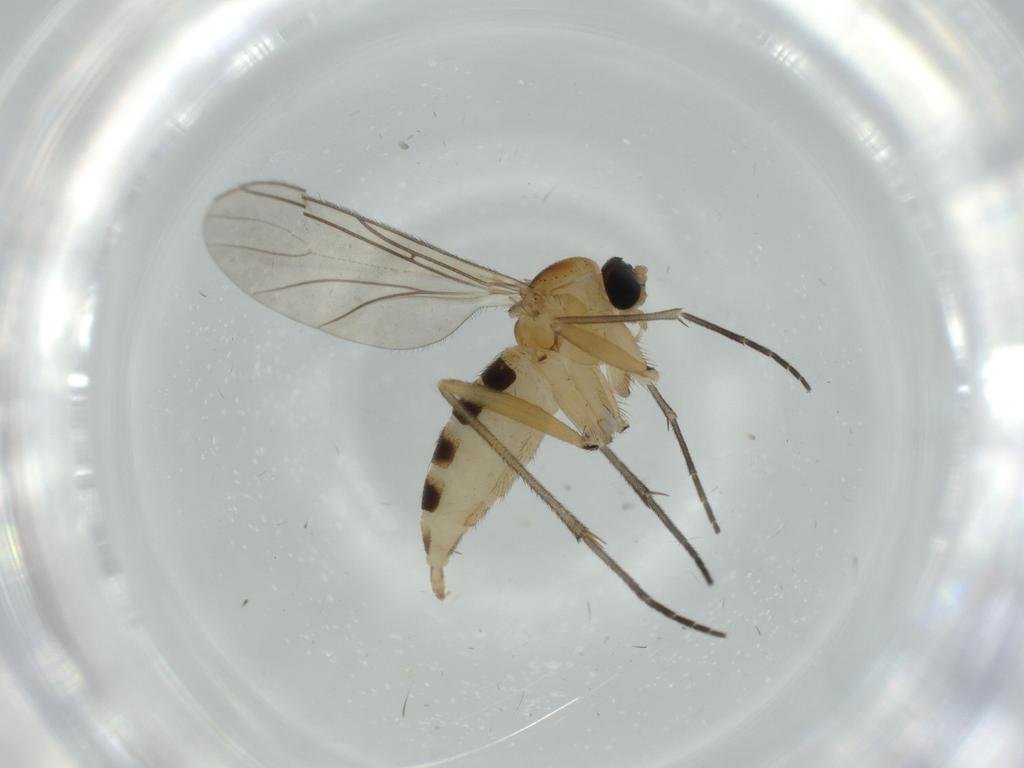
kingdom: Animalia
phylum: Arthropoda
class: Insecta
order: Diptera
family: Sciaridae
